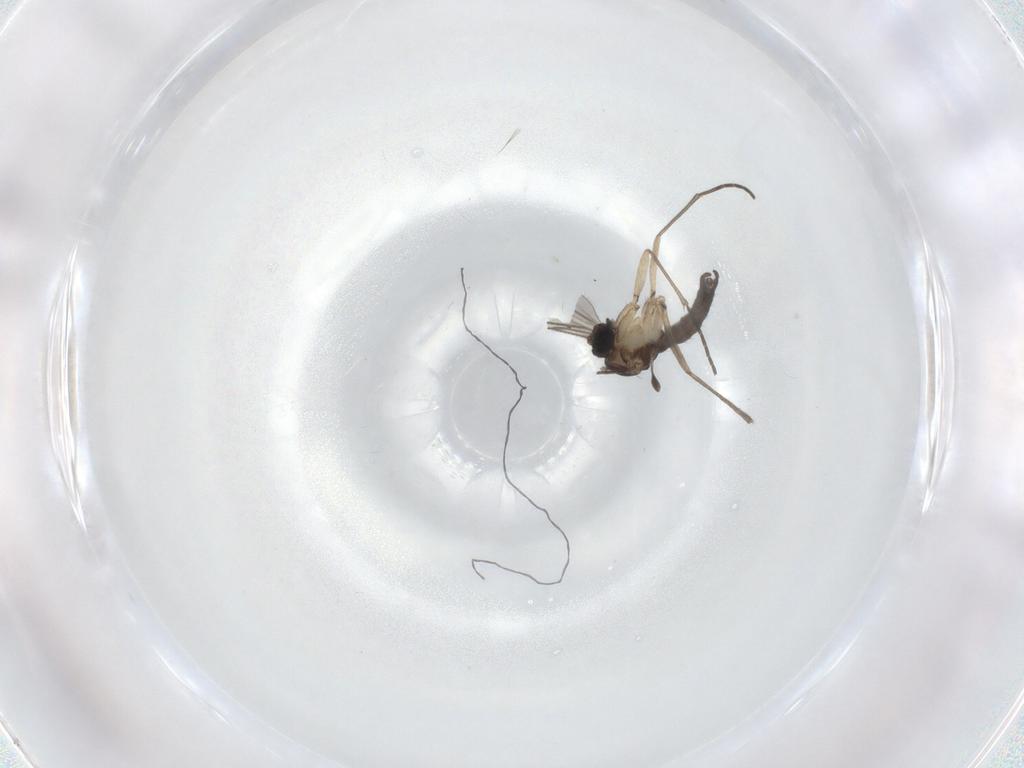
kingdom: Animalia
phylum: Arthropoda
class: Insecta
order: Diptera
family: Sciaridae
